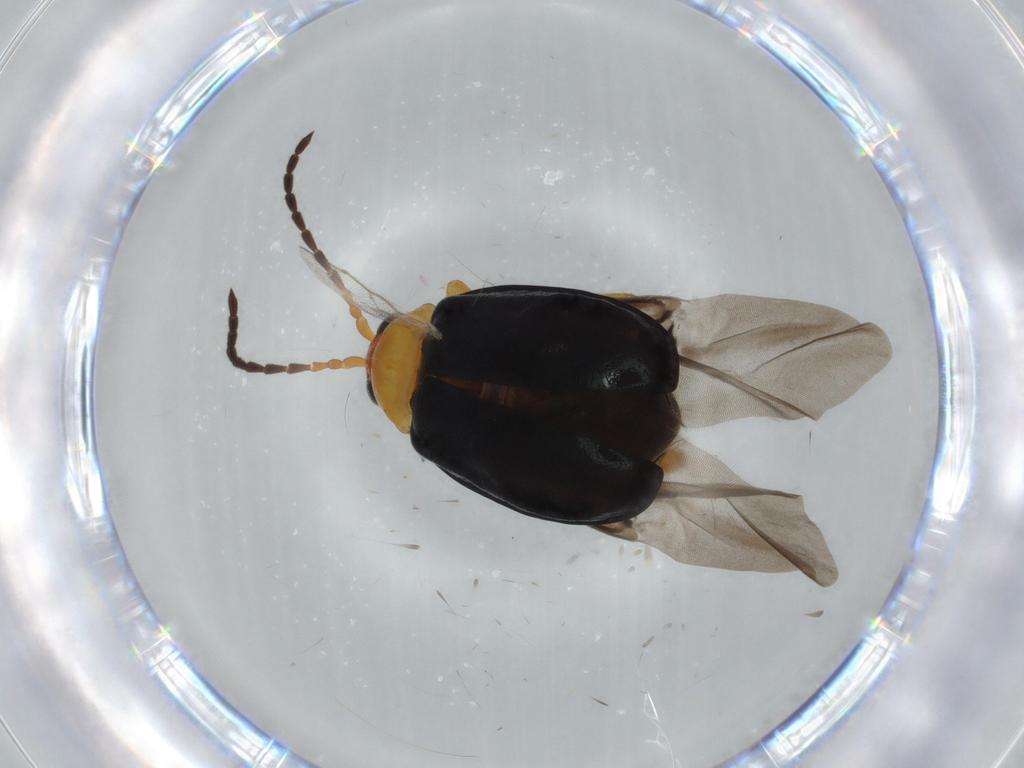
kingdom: Animalia
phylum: Arthropoda
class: Insecta
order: Coleoptera
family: Chrysomelidae
